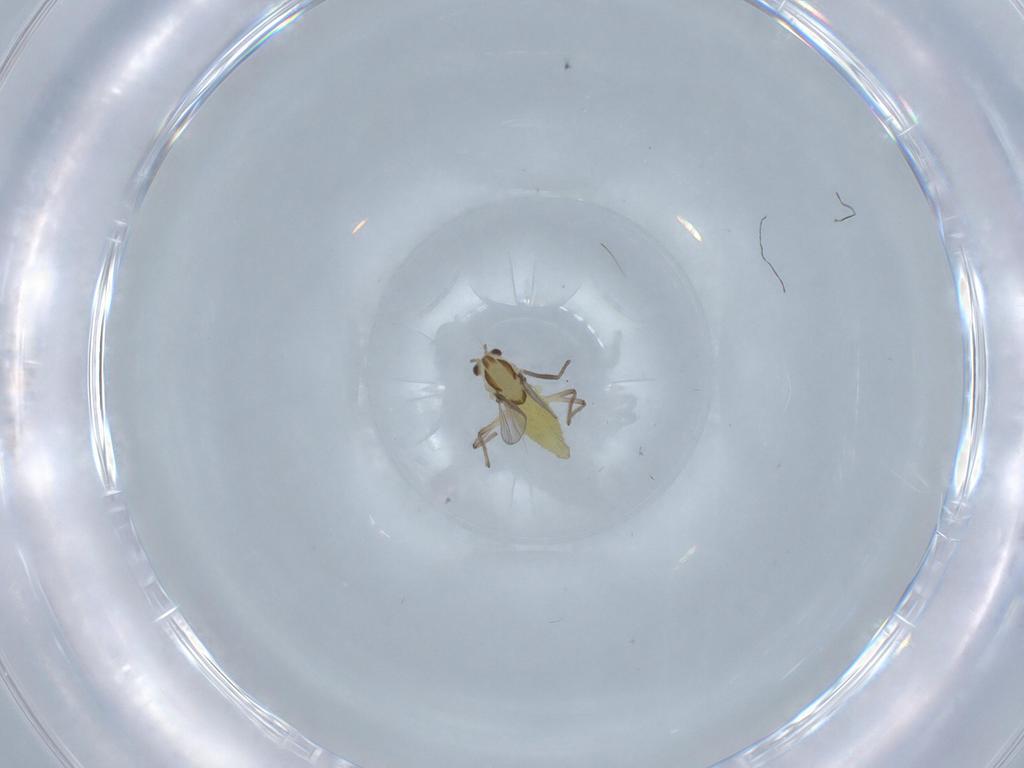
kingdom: Animalia
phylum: Arthropoda
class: Insecta
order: Diptera
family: Chironomidae
